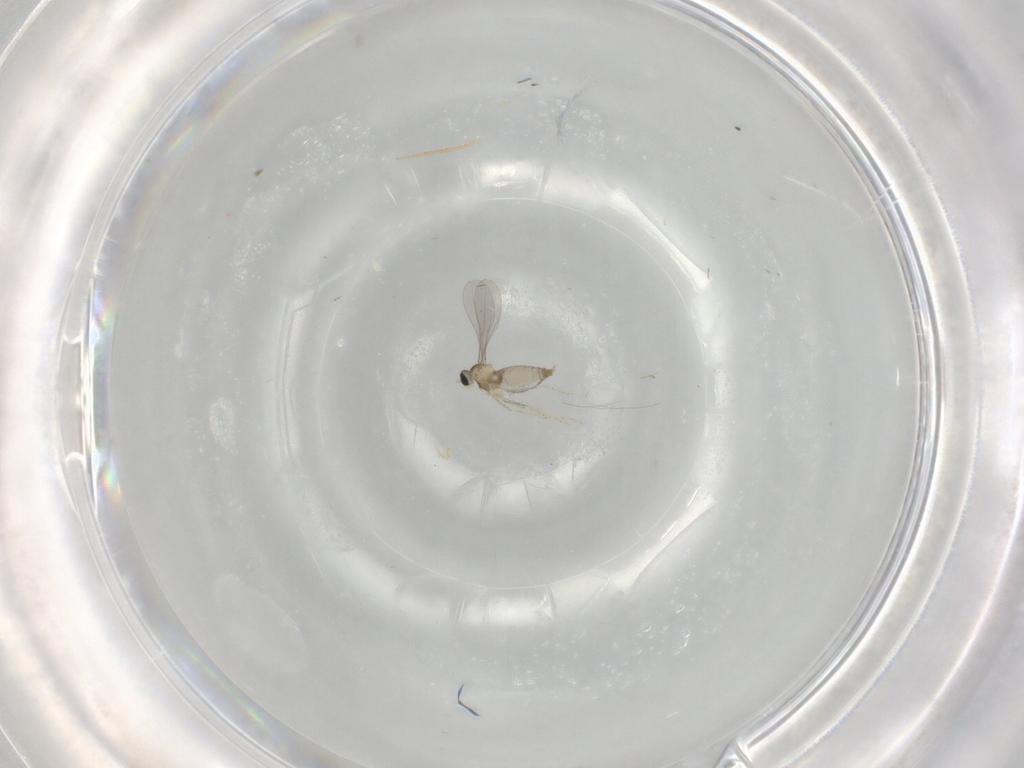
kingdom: Animalia
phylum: Arthropoda
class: Insecta
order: Diptera
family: Cecidomyiidae
